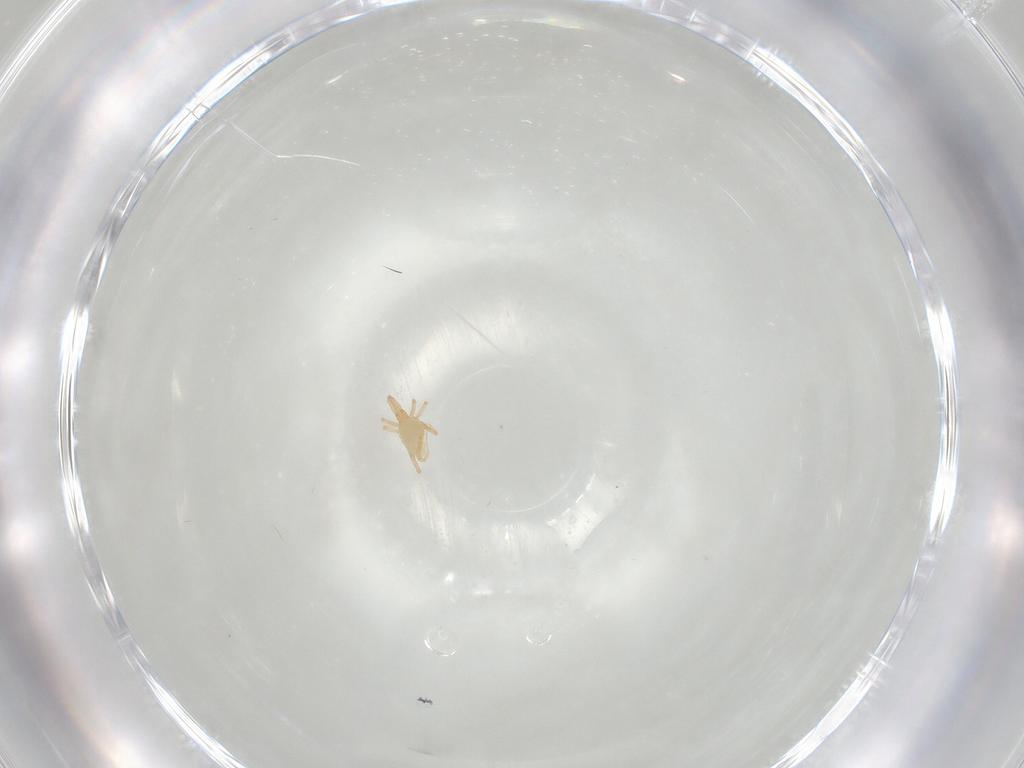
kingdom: Animalia
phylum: Arthropoda
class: Arachnida
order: Trombidiformes
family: Cunaxidae
